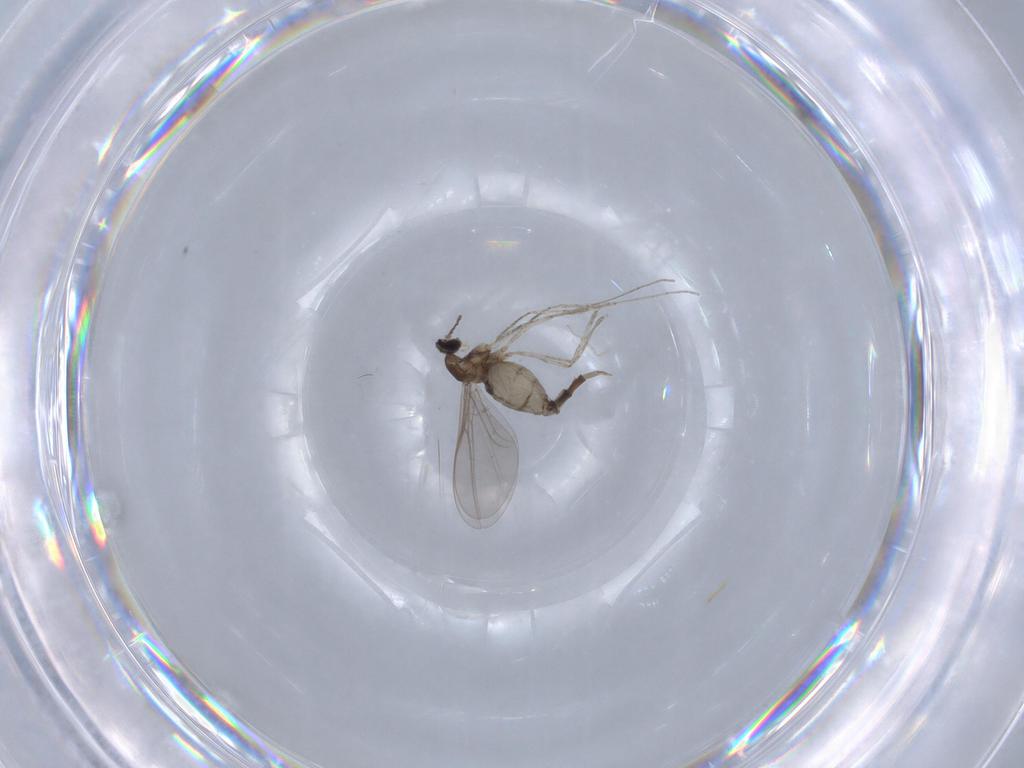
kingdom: Animalia
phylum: Arthropoda
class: Insecta
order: Diptera
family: Cecidomyiidae
